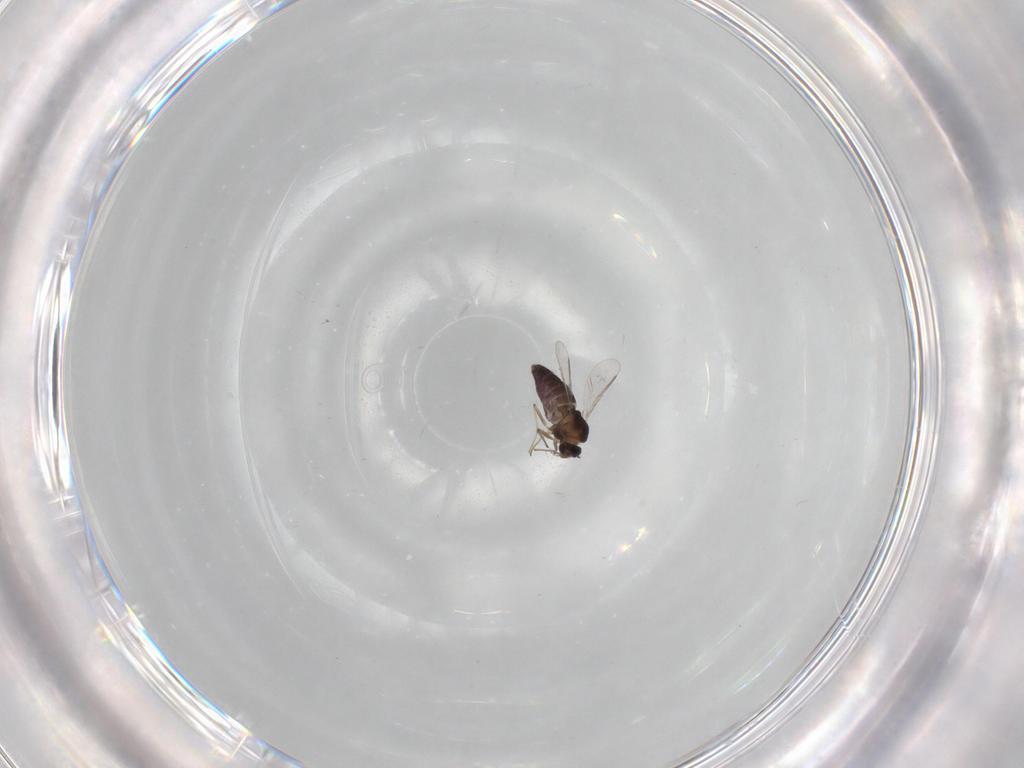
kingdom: Animalia
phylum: Arthropoda
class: Insecta
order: Diptera
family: Chironomidae
